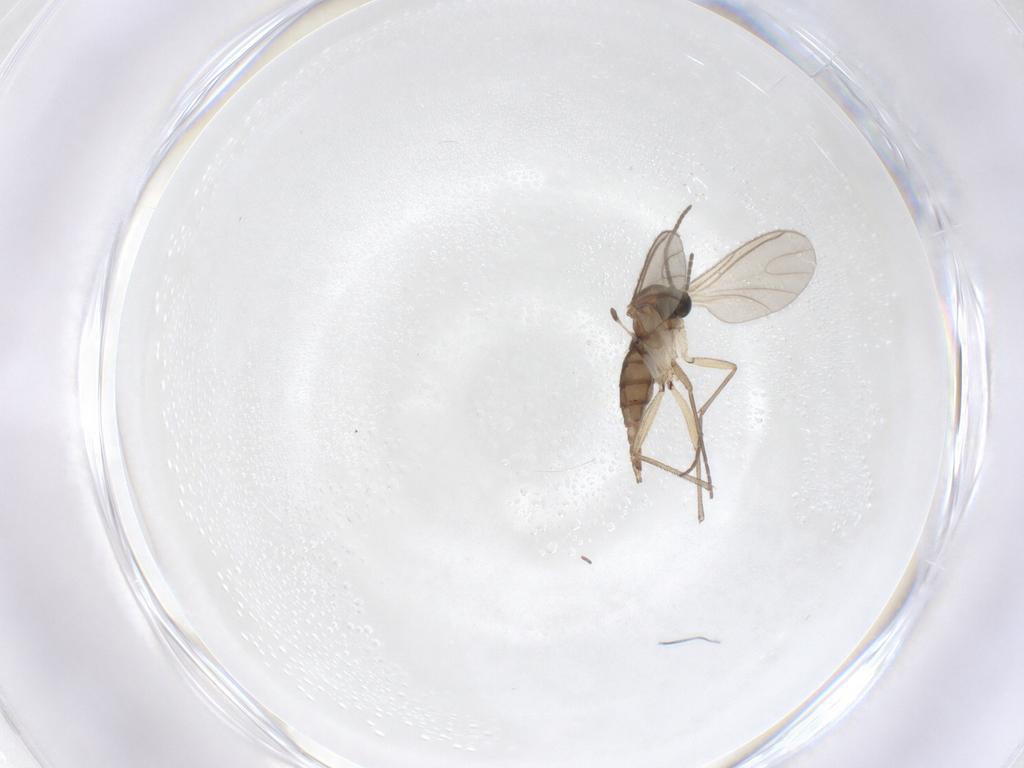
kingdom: Animalia
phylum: Arthropoda
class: Insecta
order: Diptera
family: Sciaridae
